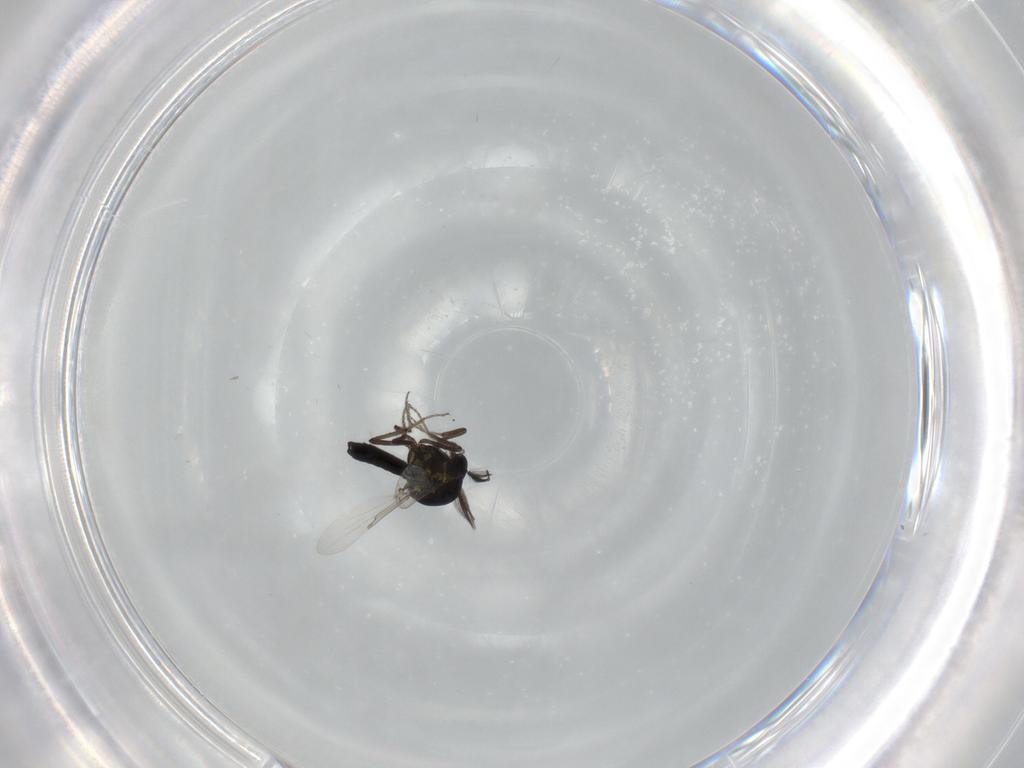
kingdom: Animalia
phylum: Arthropoda
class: Insecta
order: Diptera
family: Ceratopogonidae
